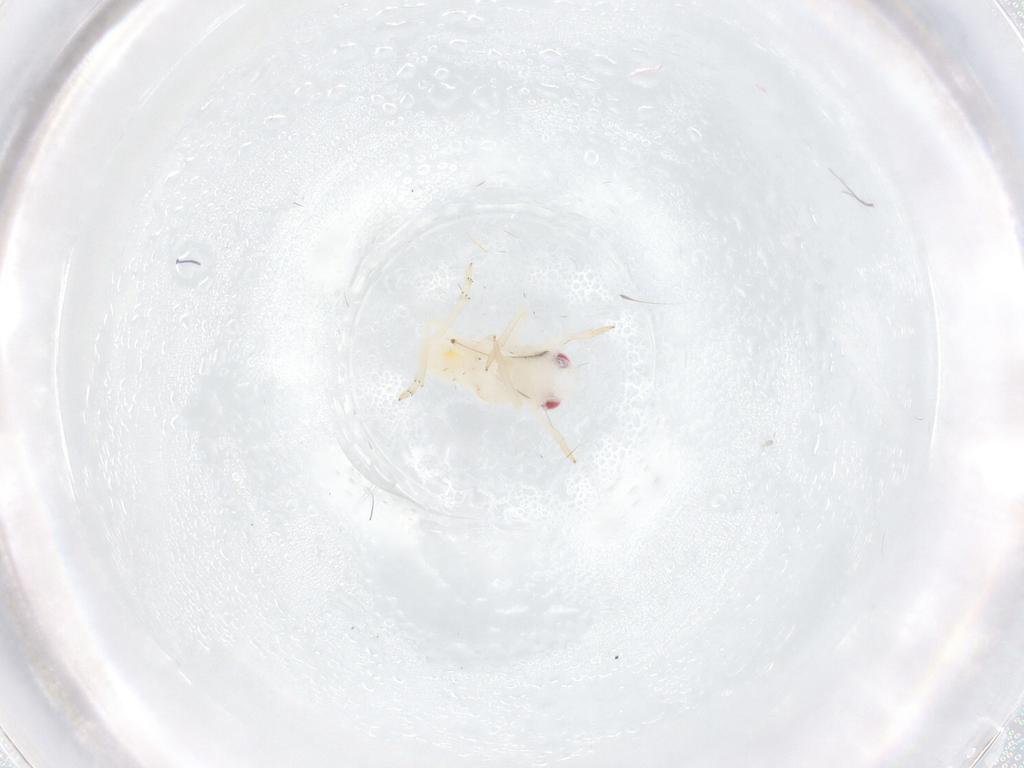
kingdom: Animalia
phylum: Arthropoda
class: Insecta
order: Hemiptera
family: Tropiduchidae
